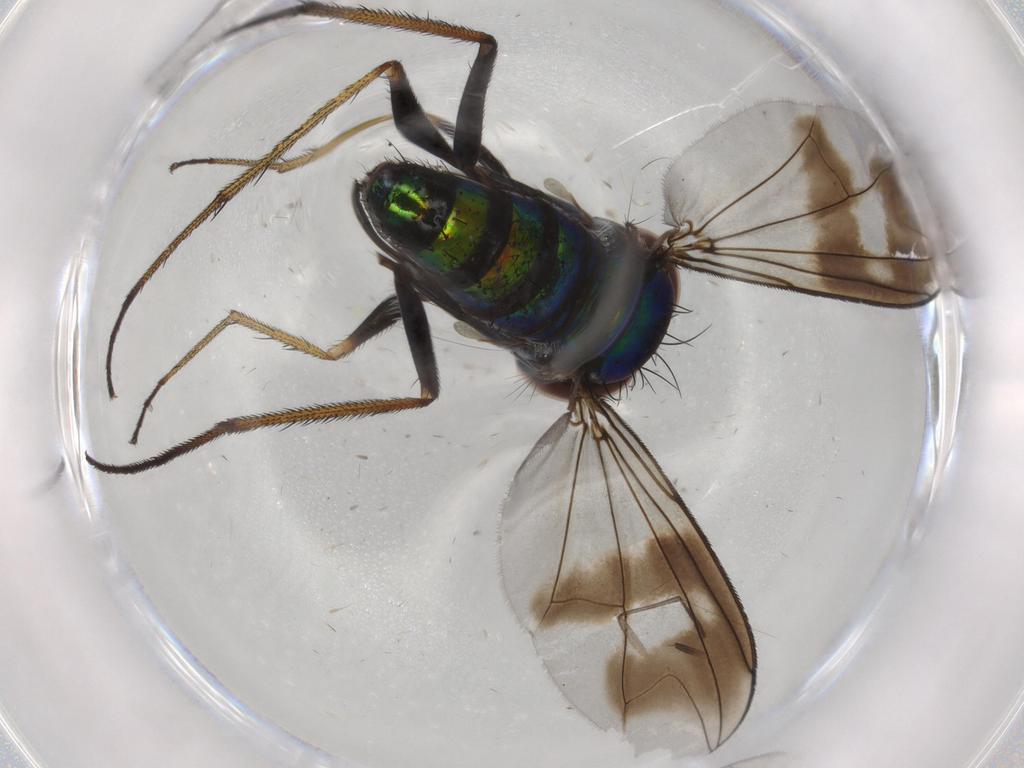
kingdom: Animalia
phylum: Arthropoda
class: Insecta
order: Diptera
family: Dolichopodidae
